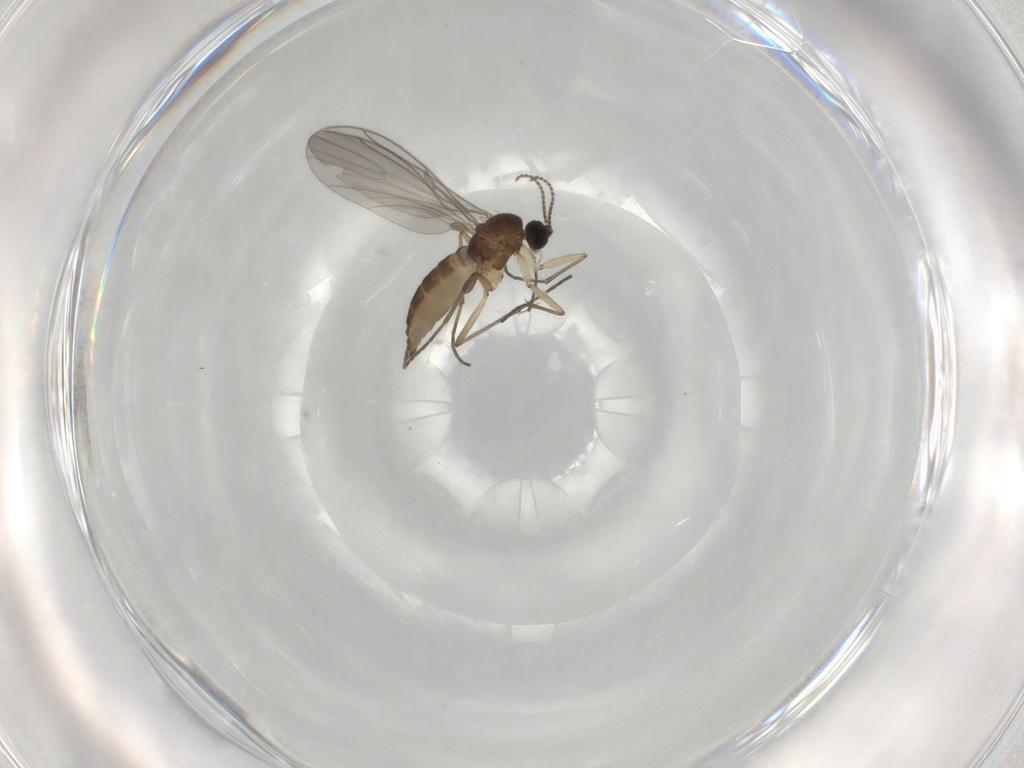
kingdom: Animalia
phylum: Arthropoda
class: Insecta
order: Diptera
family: Sciaridae
